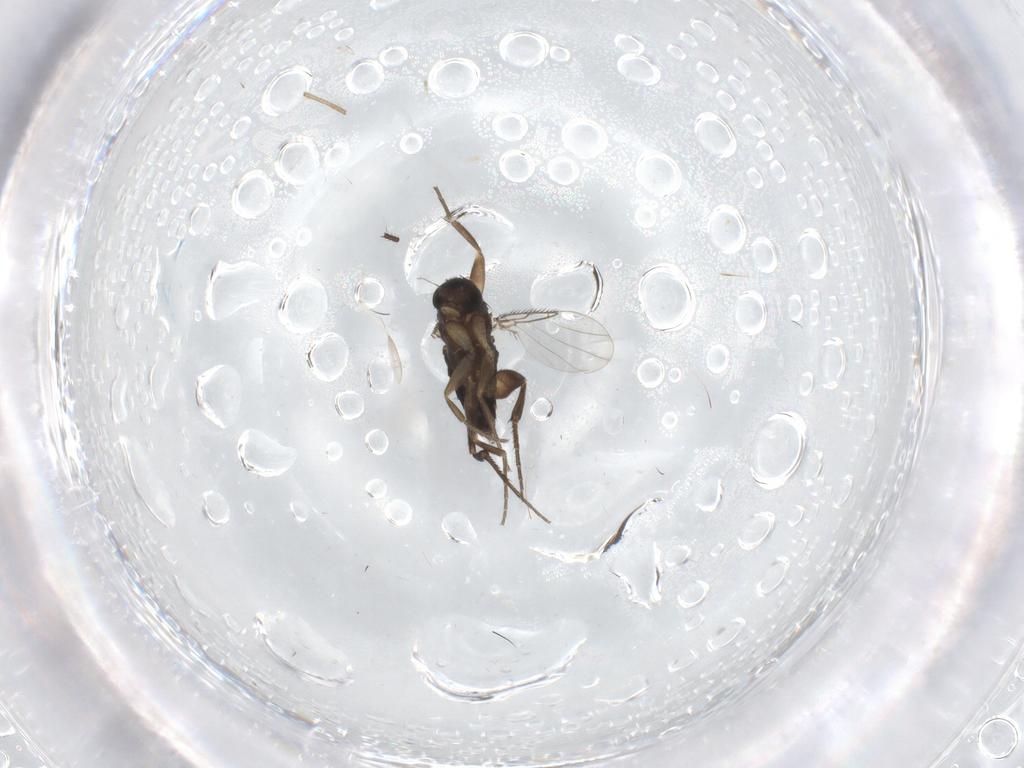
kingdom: Animalia
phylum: Arthropoda
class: Insecta
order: Diptera
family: Phoridae
